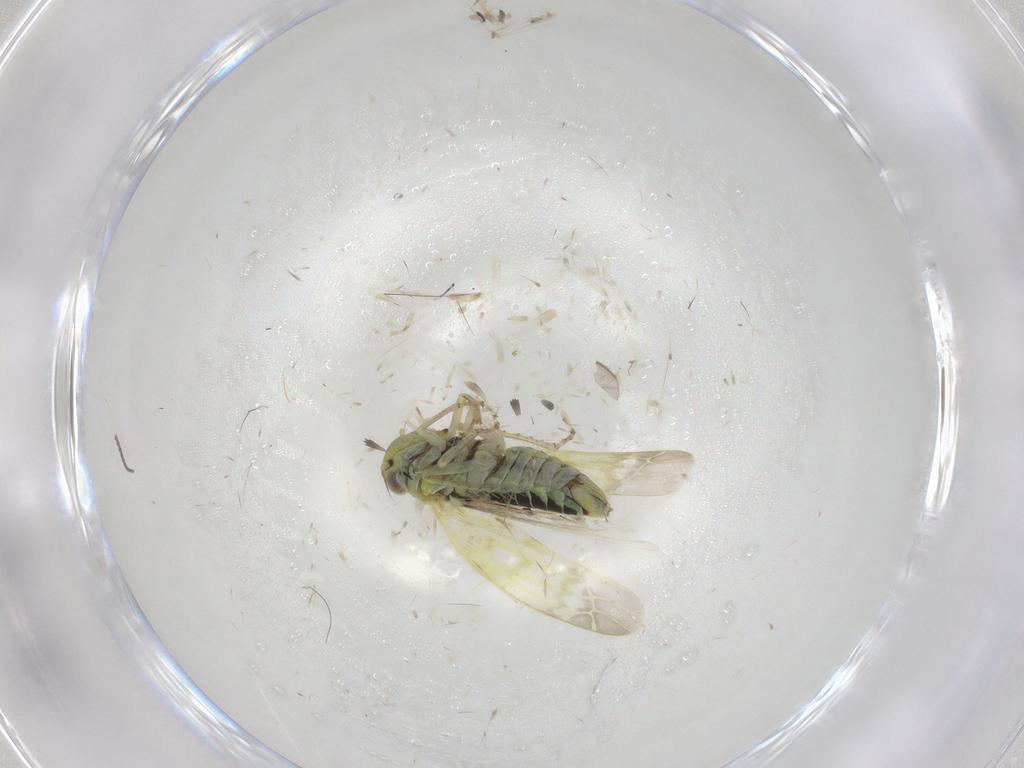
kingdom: Animalia
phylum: Arthropoda
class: Insecta
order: Hemiptera
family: Cicadellidae
